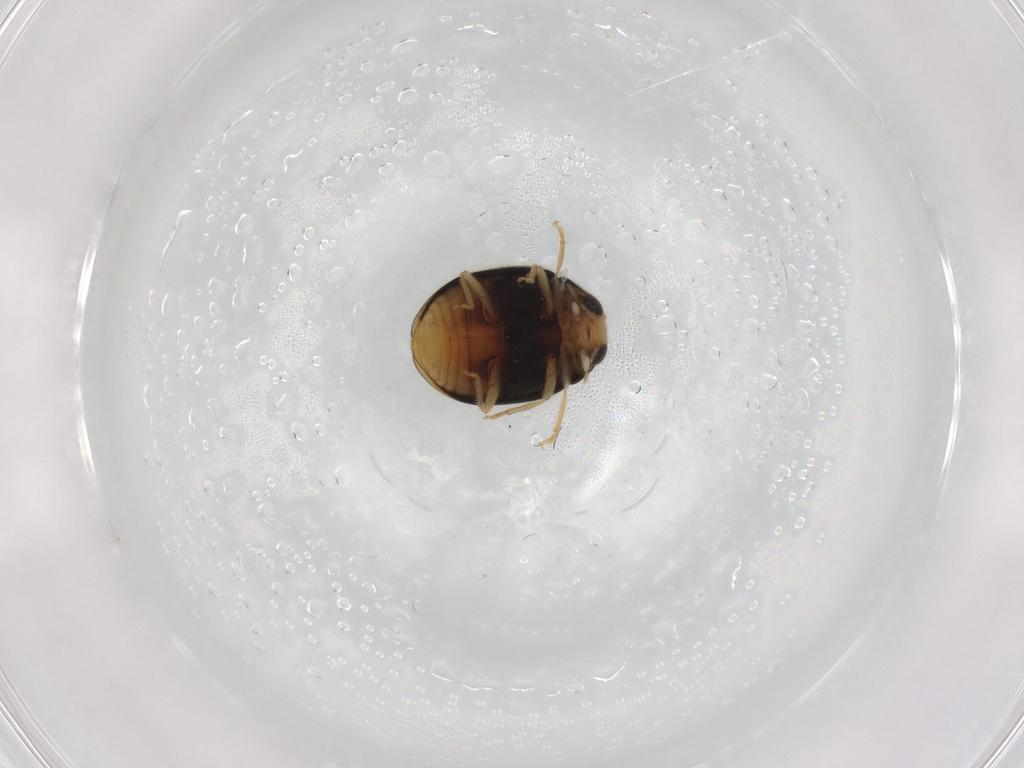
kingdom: Animalia
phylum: Arthropoda
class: Insecta
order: Coleoptera
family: Coccinellidae
